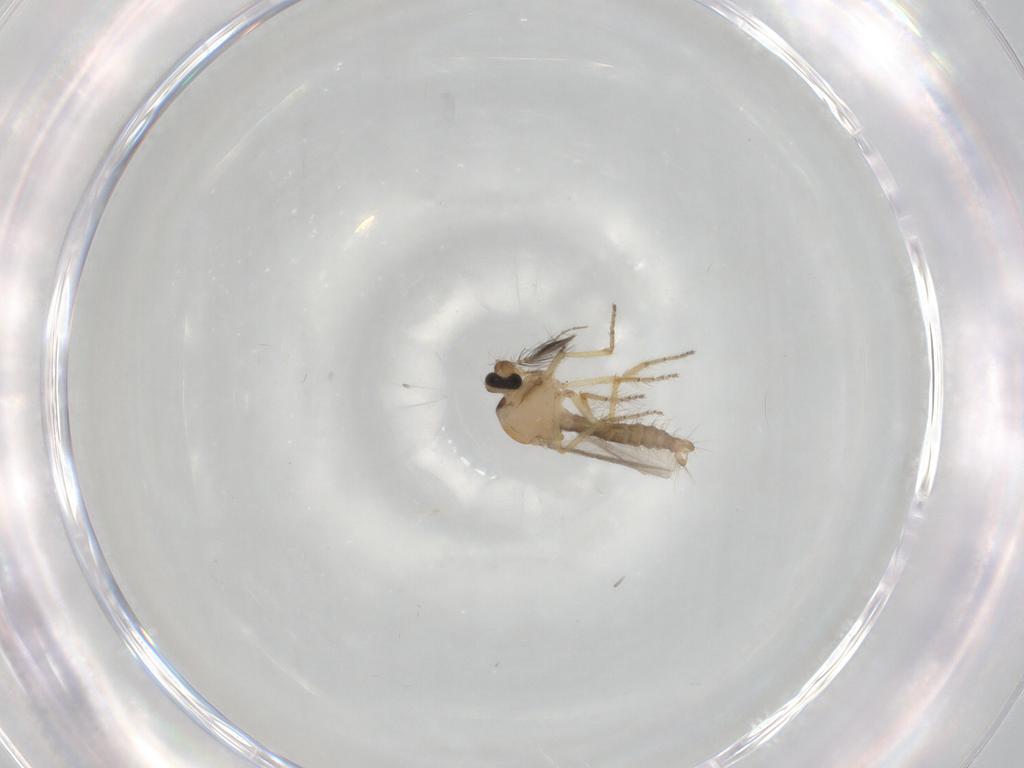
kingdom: Animalia
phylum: Arthropoda
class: Insecta
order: Diptera
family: Ceratopogonidae
